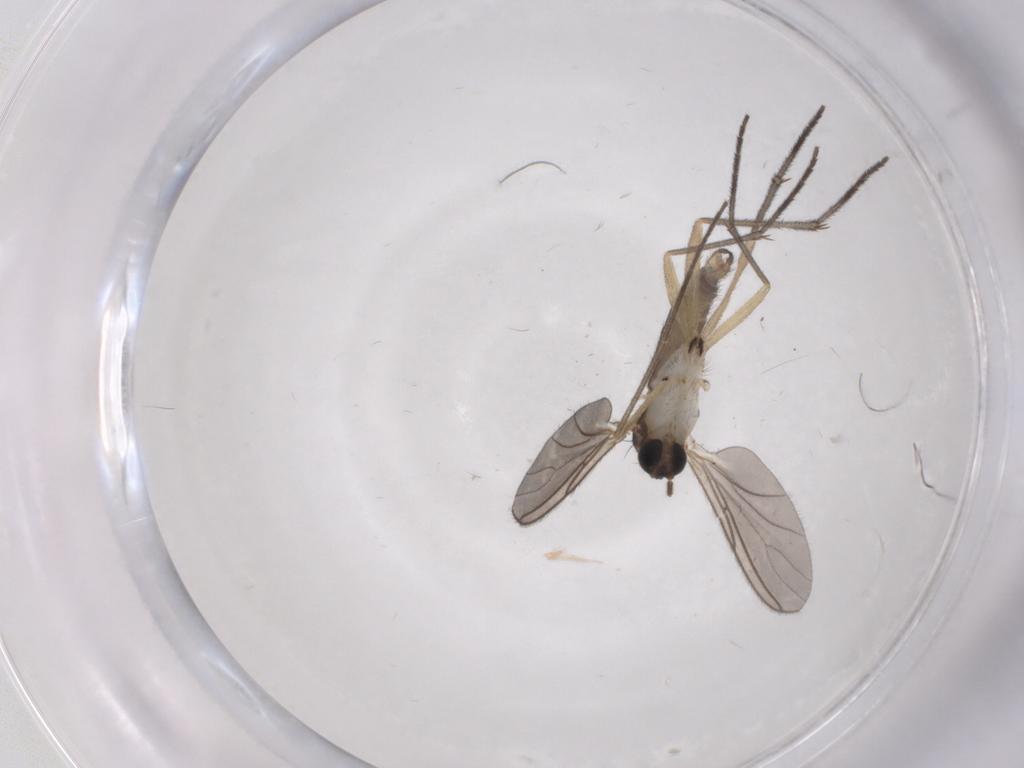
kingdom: Animalia
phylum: Arthropoda
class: Insecta
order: Diptera
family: Sciaridae
